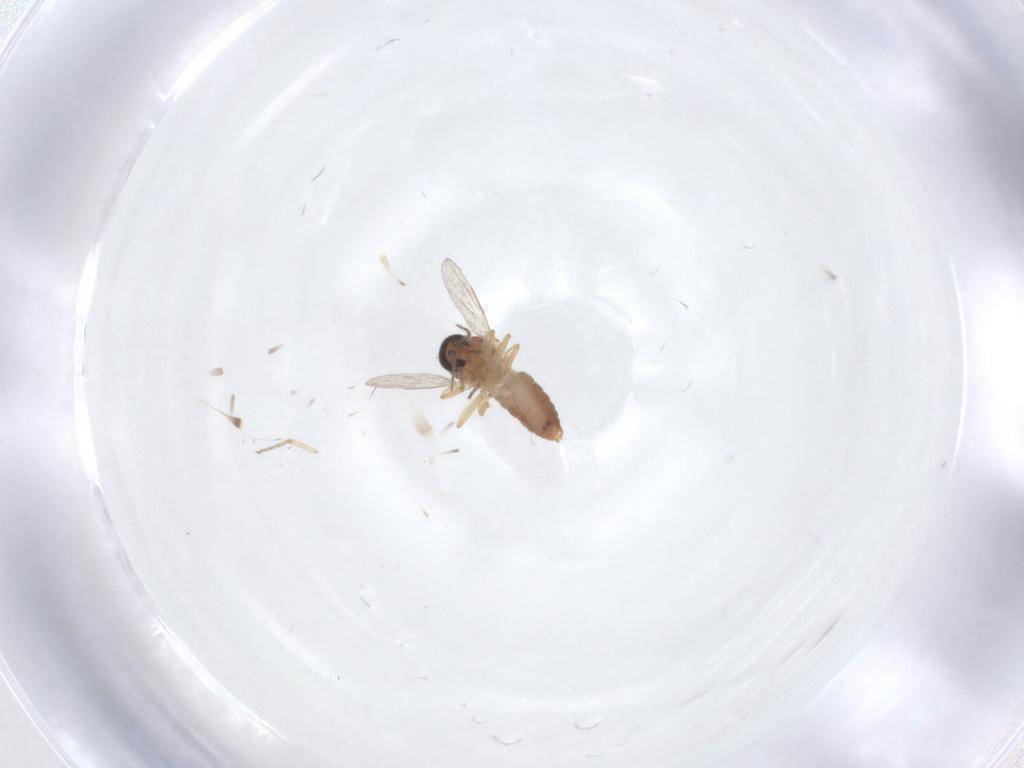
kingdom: Animalia
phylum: Arthropoda
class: Insecta
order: Diptera
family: Ceratopogonidae
